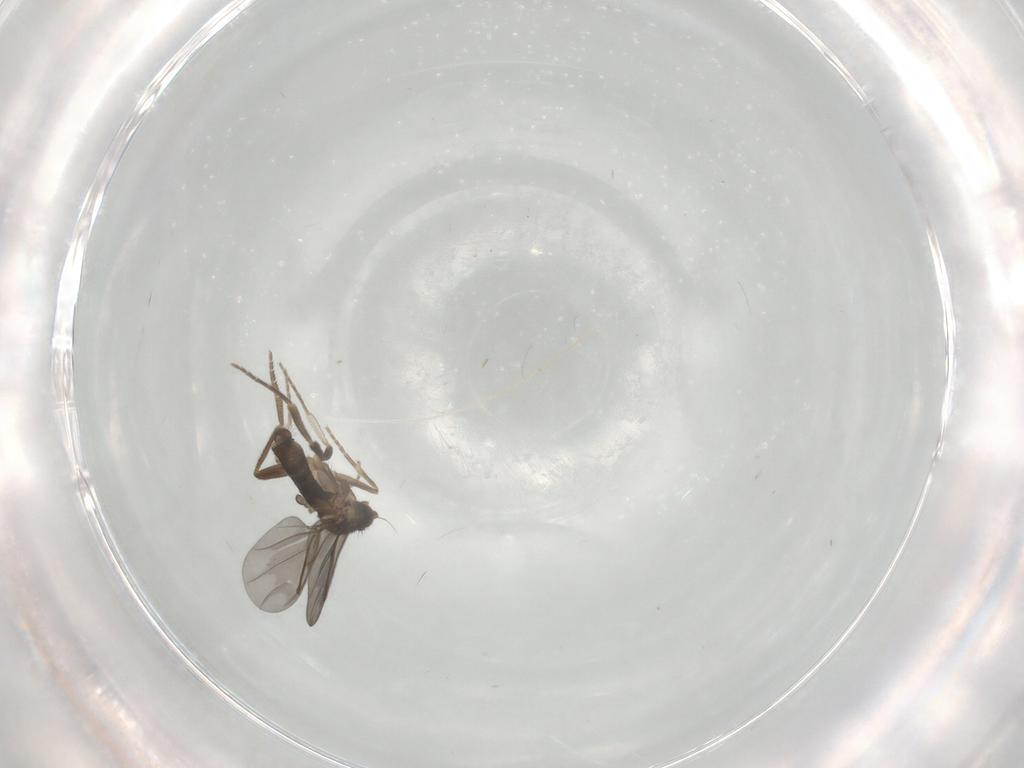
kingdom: Animalia
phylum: Arthropoda
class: Insecta
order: Diptera
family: Phoridae
